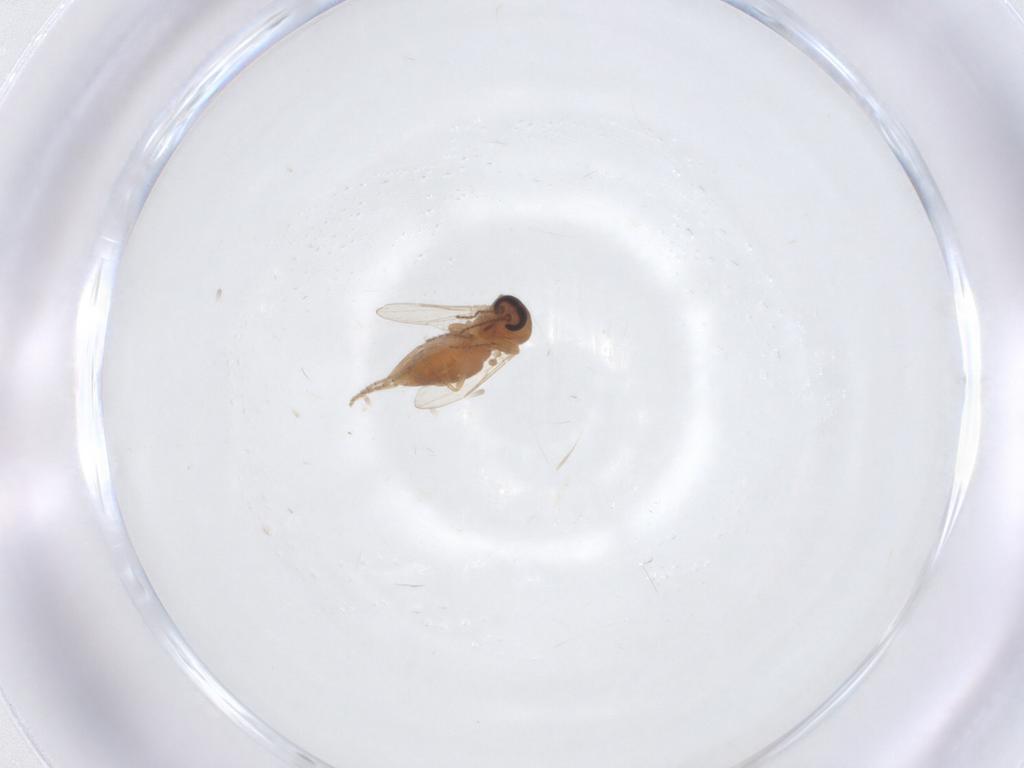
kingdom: Animalia
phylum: Arthropoda
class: Insecta
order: Diptera
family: Ceratopogonidae
